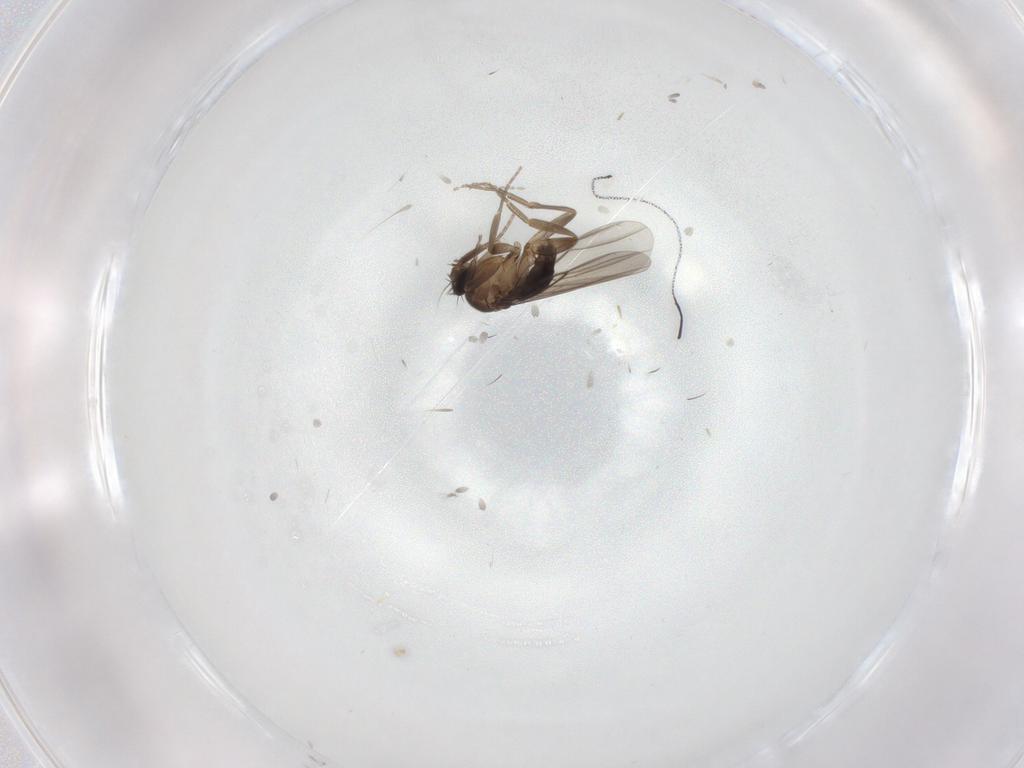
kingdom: Animalia
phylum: Arthropoda
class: Insecta
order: Diptera
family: Phoridae
